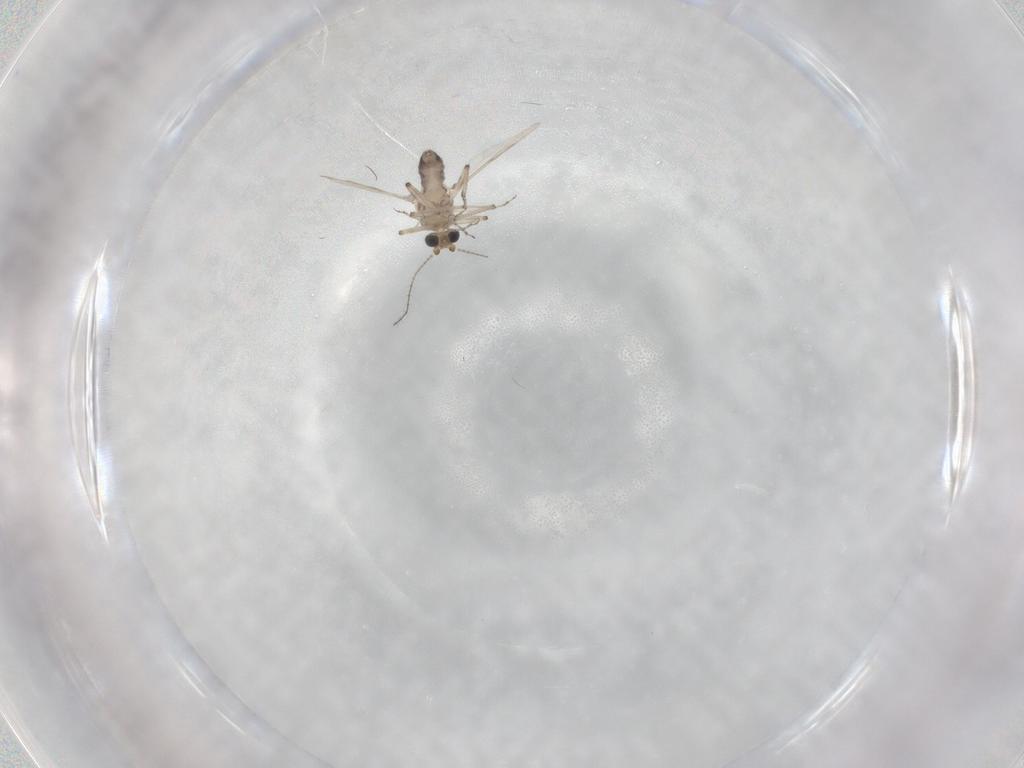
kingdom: Animalia
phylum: Arthropoda
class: Insecta
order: Diptera
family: Ceratopogonidae
